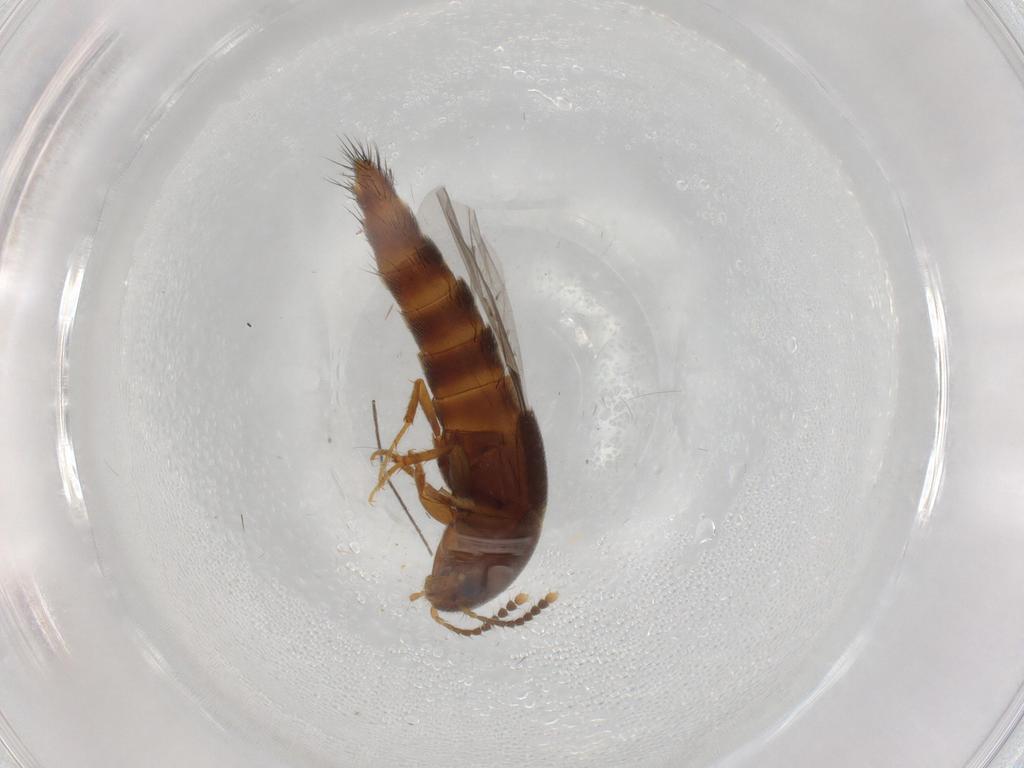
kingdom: Animalia
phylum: Arthropoda
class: Insecta
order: Coleoptera
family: Staphylinidae
